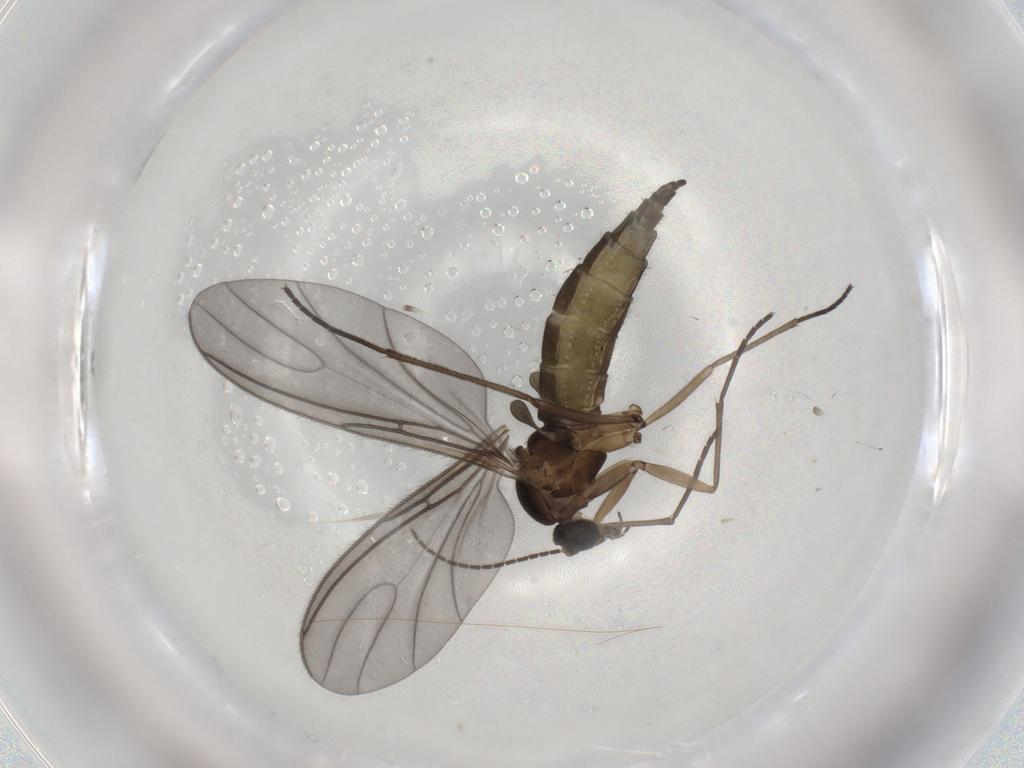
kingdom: Animalia
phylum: Arthropoda
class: Insecta
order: Diptera
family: Sciaridae
